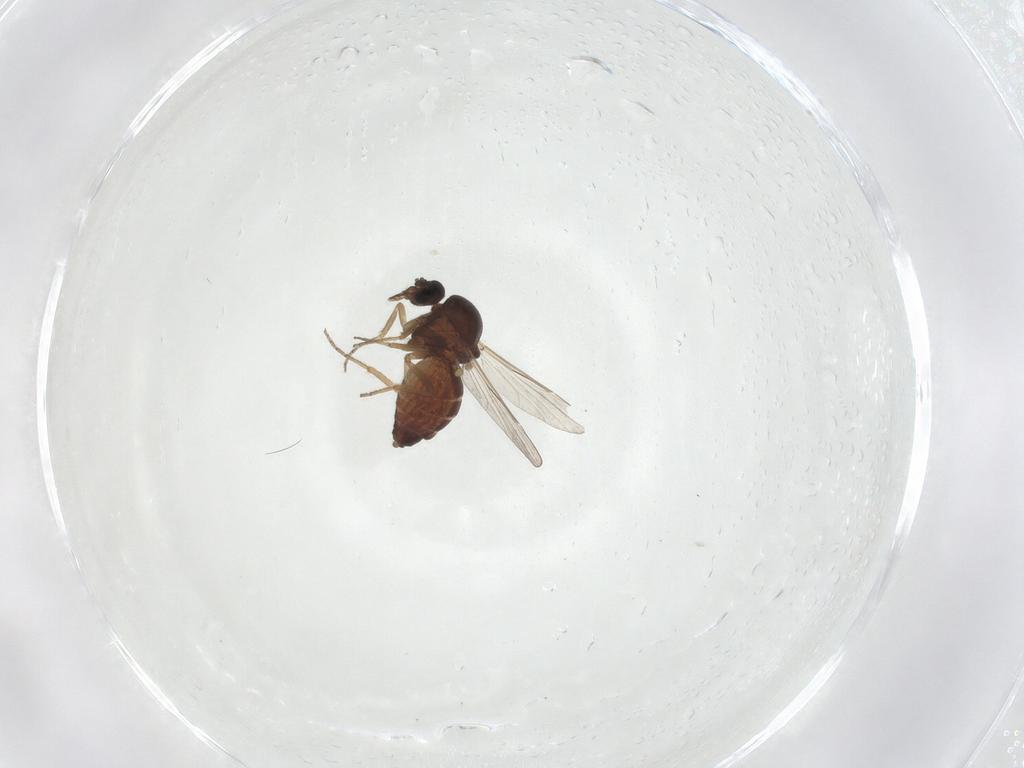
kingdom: Animalia
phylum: Arthropoda
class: Insecta
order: Diptera
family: Ceratopogonidae
